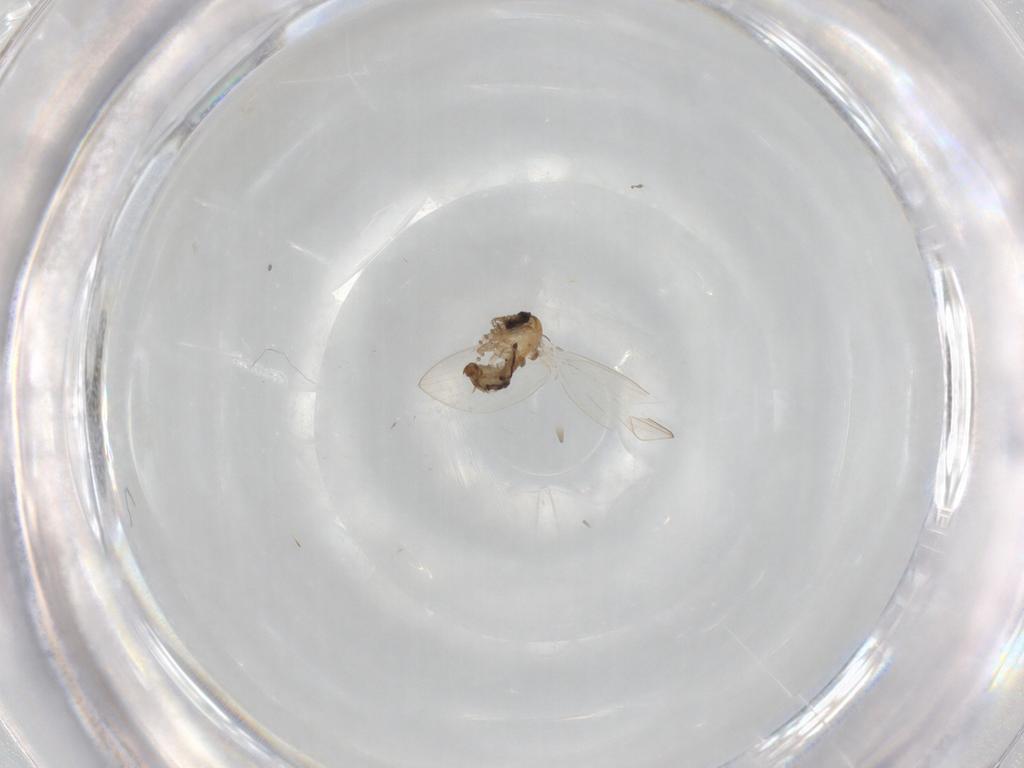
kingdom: Animalia
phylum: Arthropoda
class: Insecta
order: Diptera
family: Psychodidae
